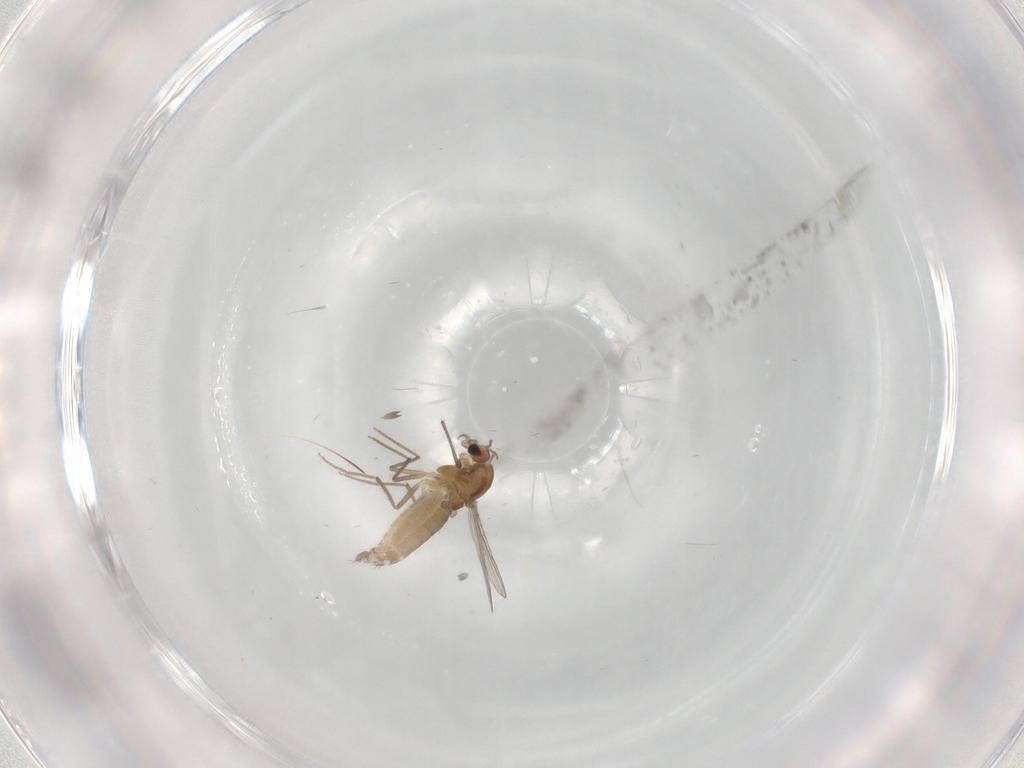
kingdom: Animalia
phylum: Arthropoda
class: Insecta
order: Diptera
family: Chironomidae
